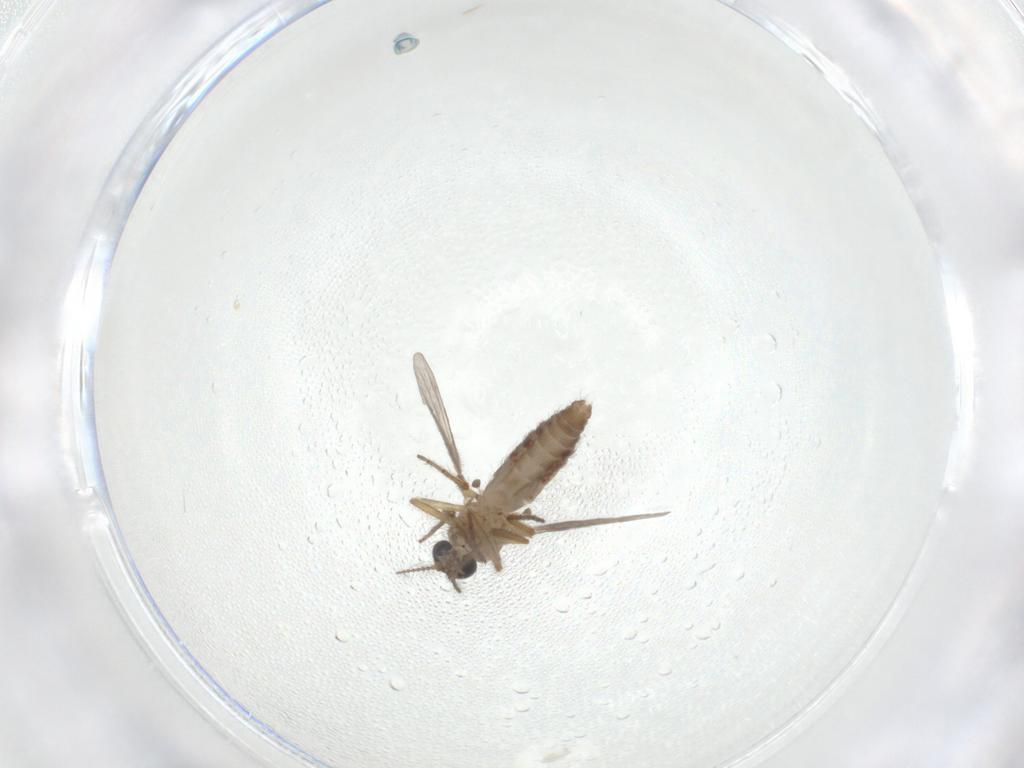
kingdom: Animalia
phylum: Arthropoda
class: Insecta
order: Diptera
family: Ceratopogonidae
